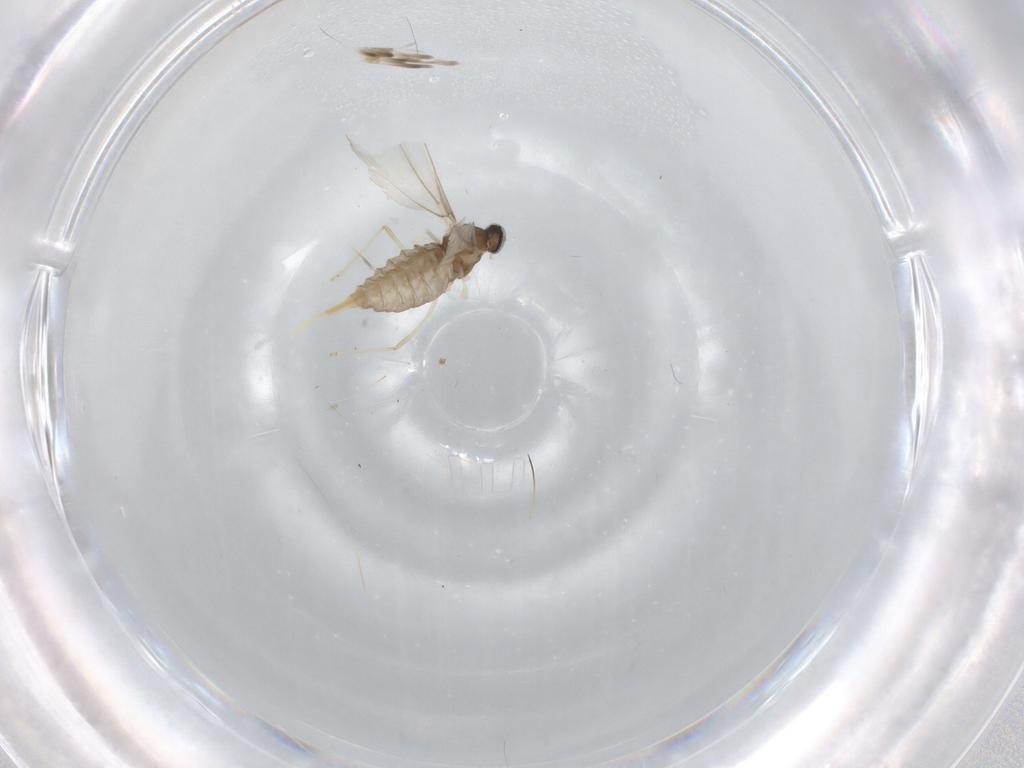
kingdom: Animalia
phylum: Arthropoda
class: Insecta
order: Diptera
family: Cecidomyiidae
